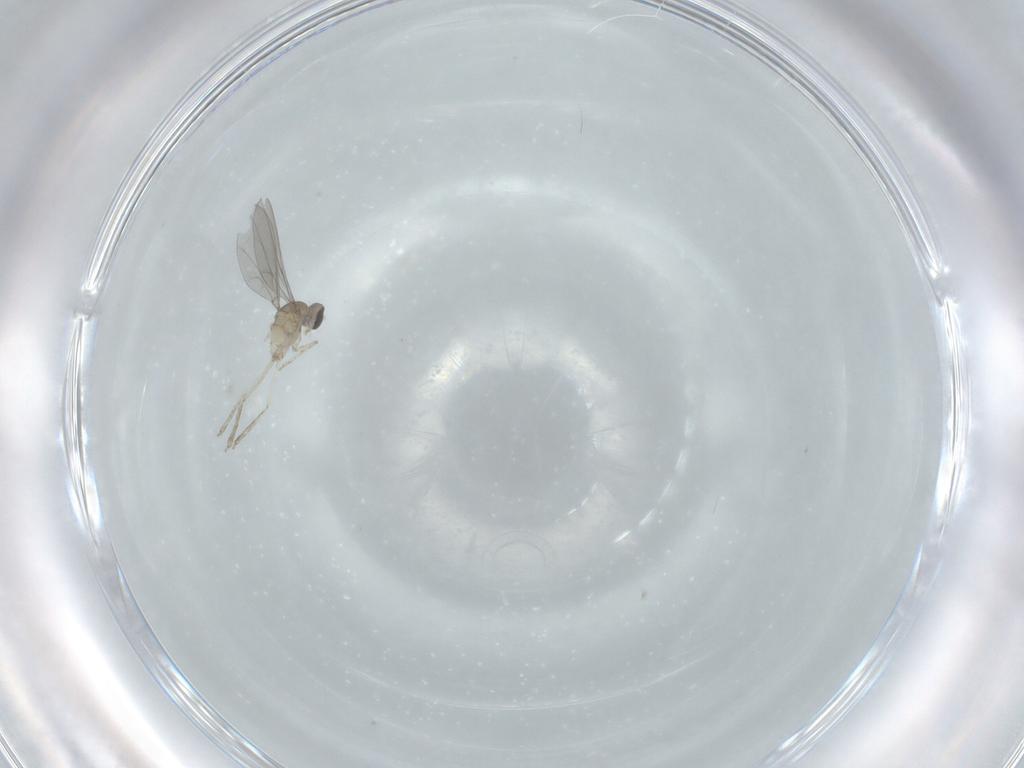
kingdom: Animalia
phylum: Arthropoda
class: Insecta
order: Diptera
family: Cecidomyiidae
